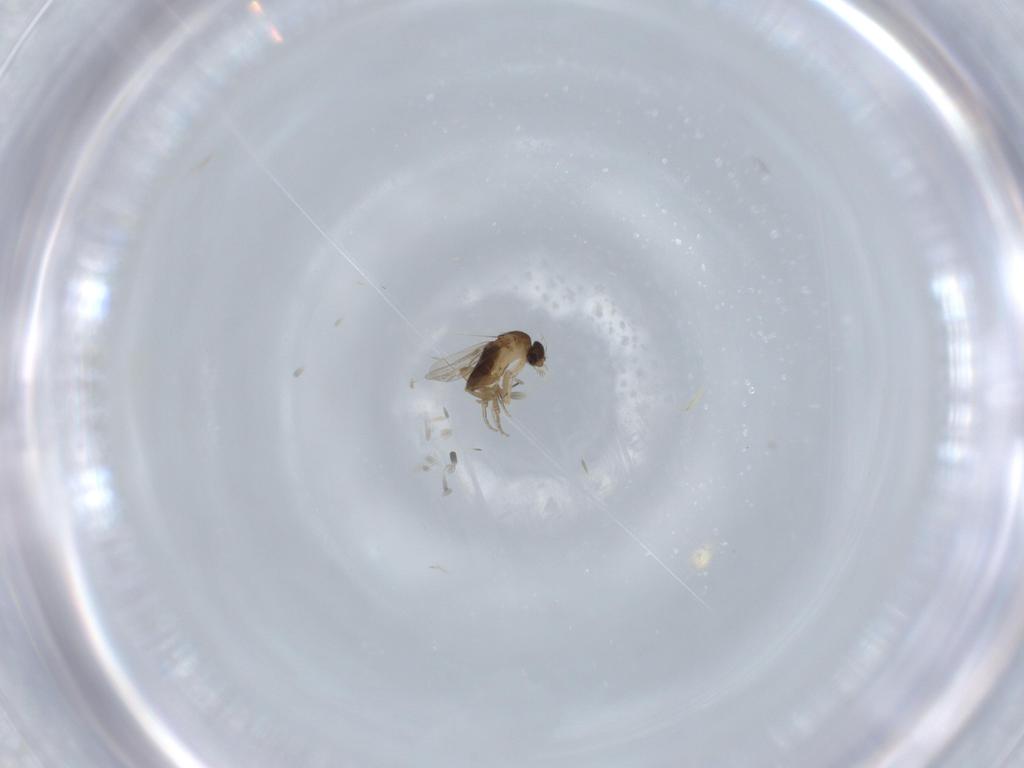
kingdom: Animalia
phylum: Arthropoda
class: Insecta
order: Diptera
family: Phoridae
